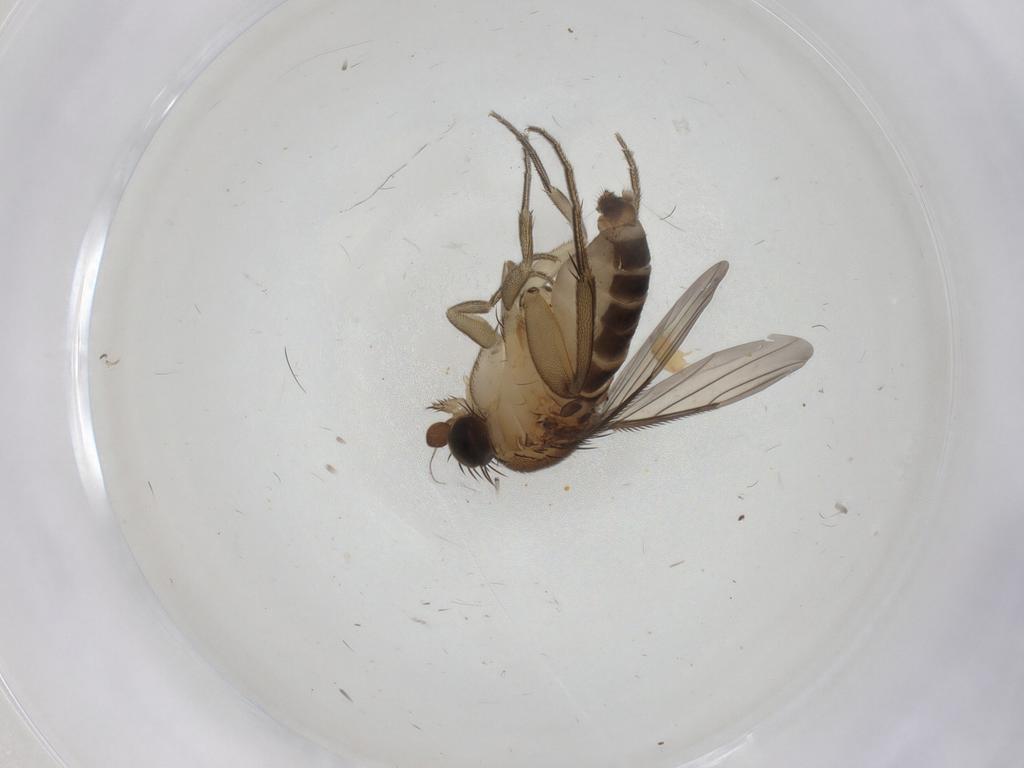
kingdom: Animalia
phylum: Arthropoda
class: Insecta
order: Diptera
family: Phoridae
